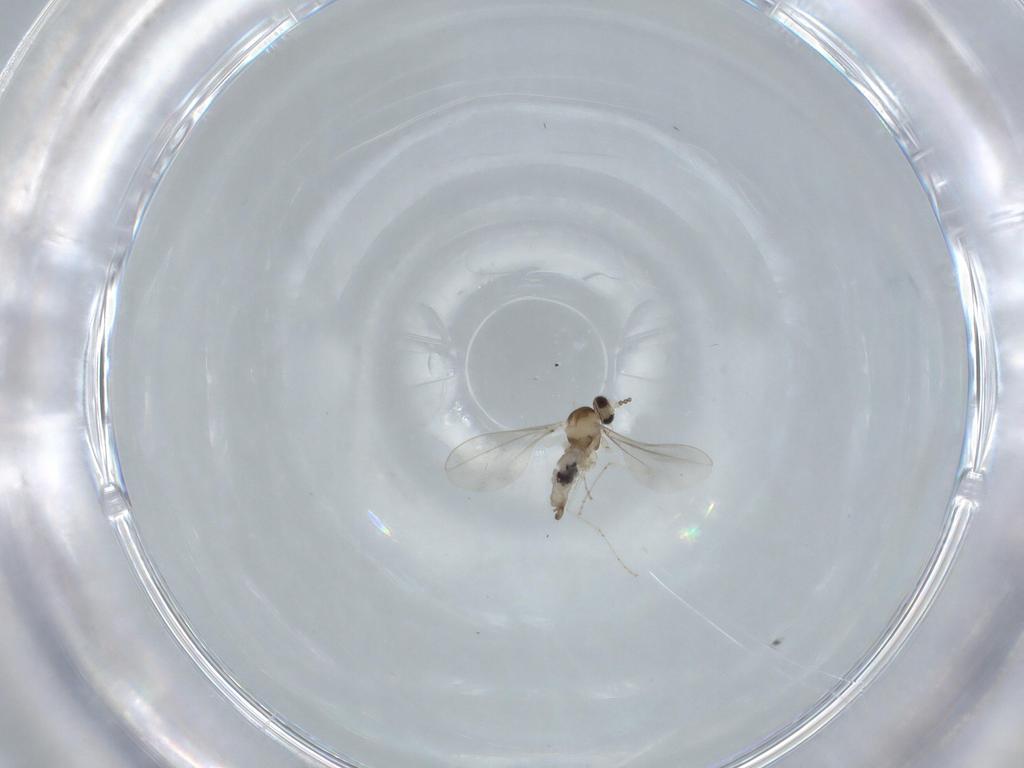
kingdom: Animalia
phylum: Arthropoda
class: Insecta
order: Diptera
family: Cecidomyiidae
